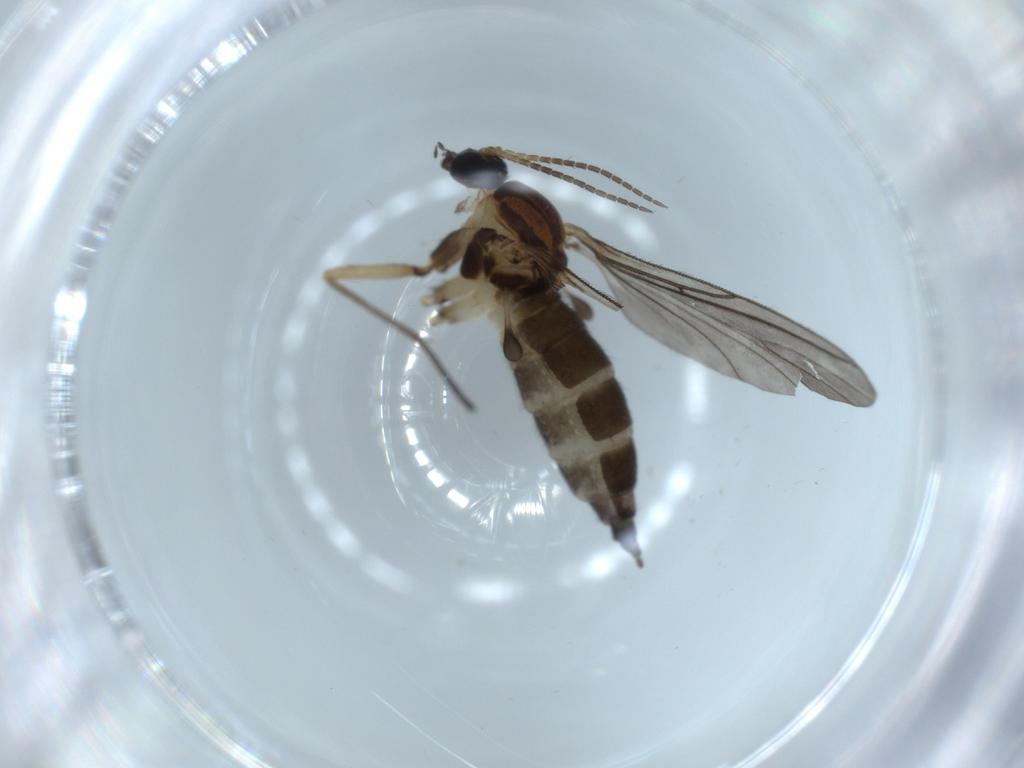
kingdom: Animalia
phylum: Arthropoda
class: Insecta
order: Diptera
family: Sciaridae
